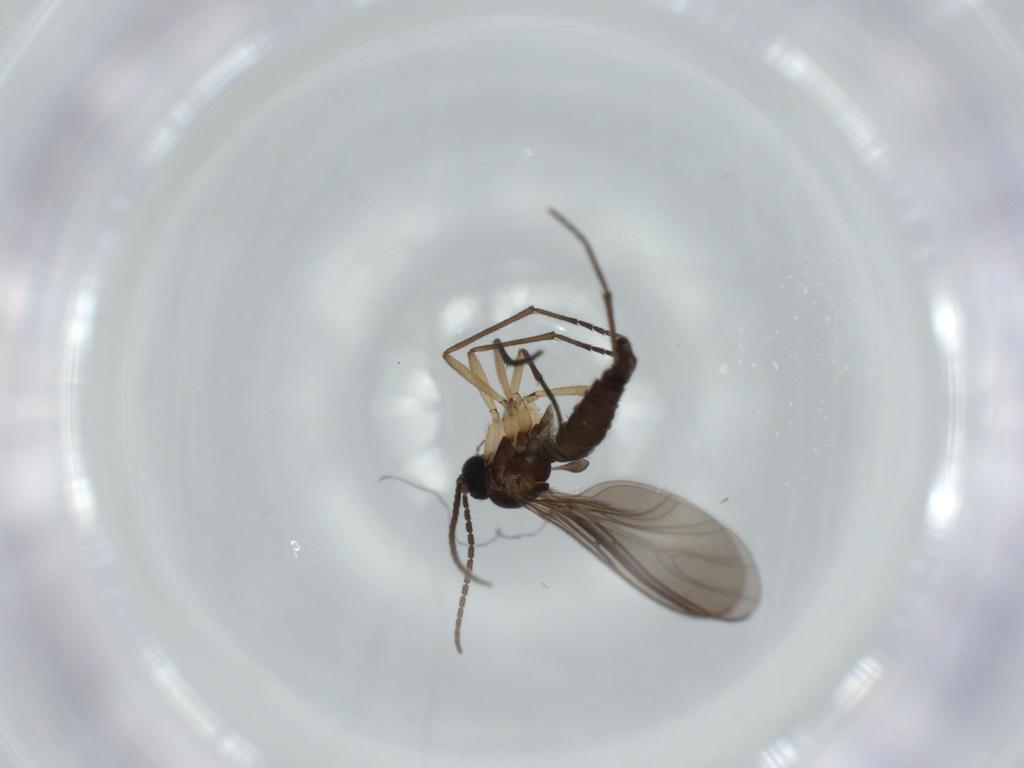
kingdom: Animalia
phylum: Arthropoda
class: Insecta
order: Diptera
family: Sciaridae
